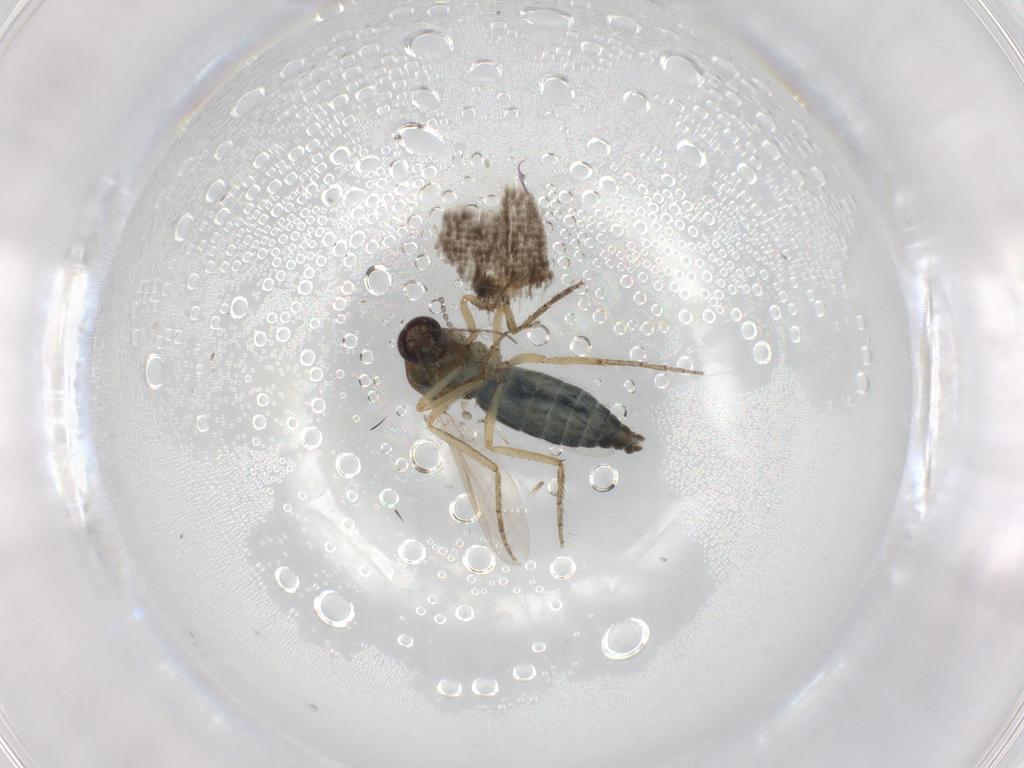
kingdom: Animalia
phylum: Arthropoda
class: Insecta
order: Diptera
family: Ceratopogonidae
